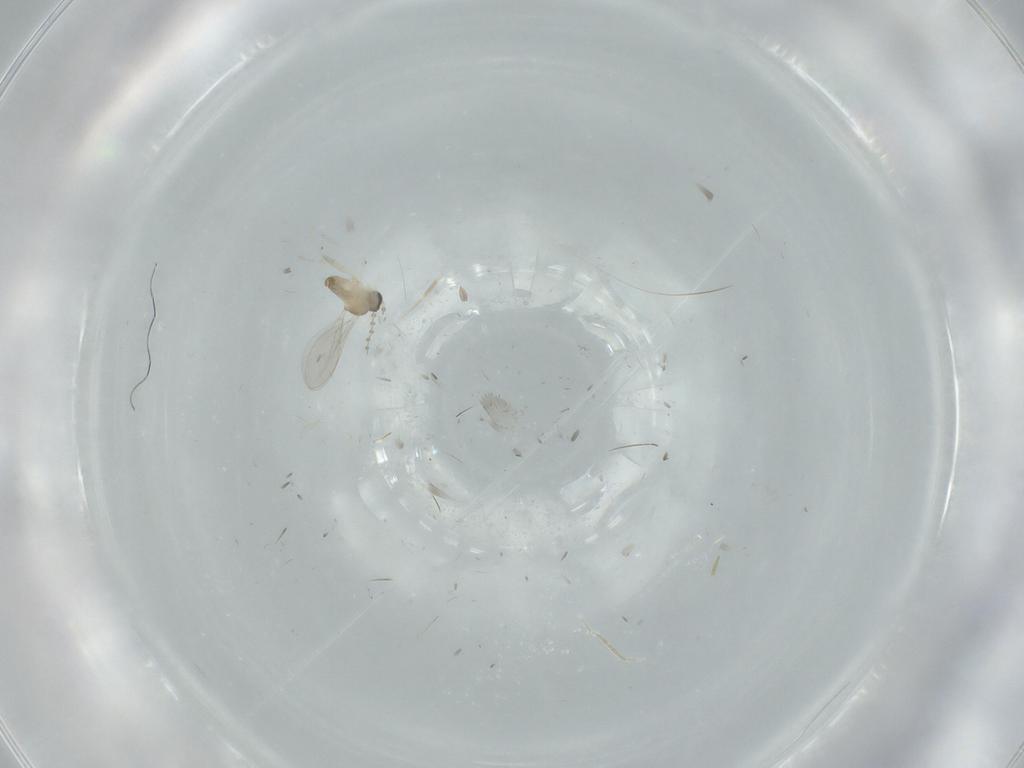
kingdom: Animalia
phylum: Arthropoda
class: Insecta
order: Diptera
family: Cecidomyiidae
